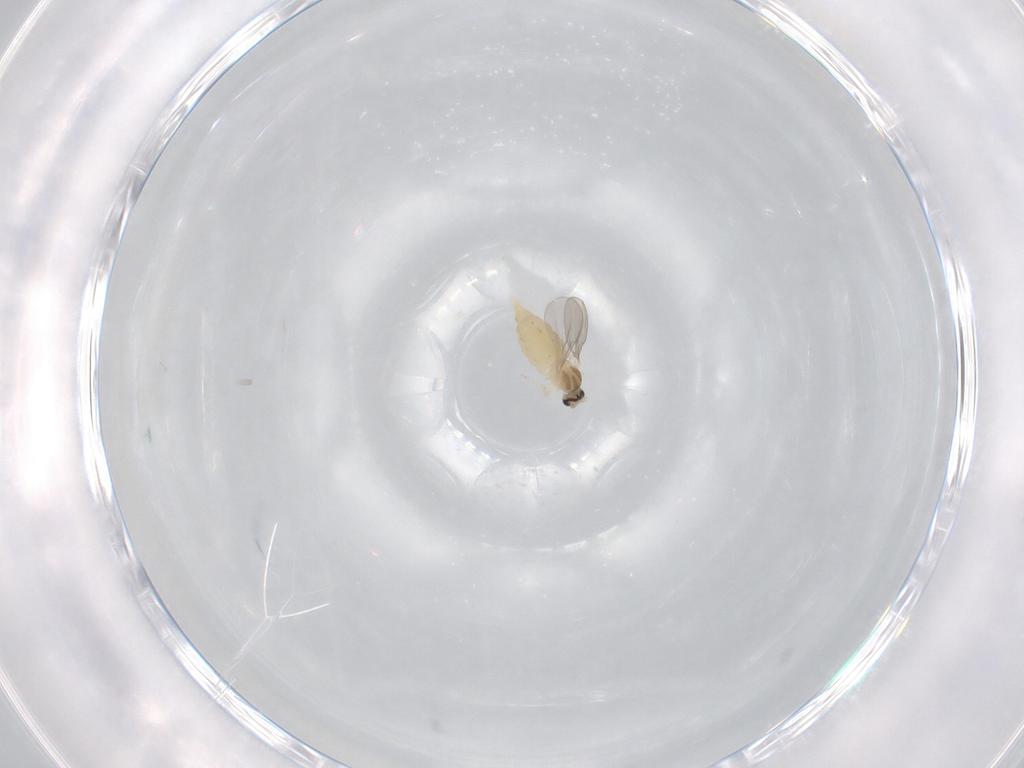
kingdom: Animalia
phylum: Arthropoda
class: Insecta
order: Diptera
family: Cecidomyiidae
